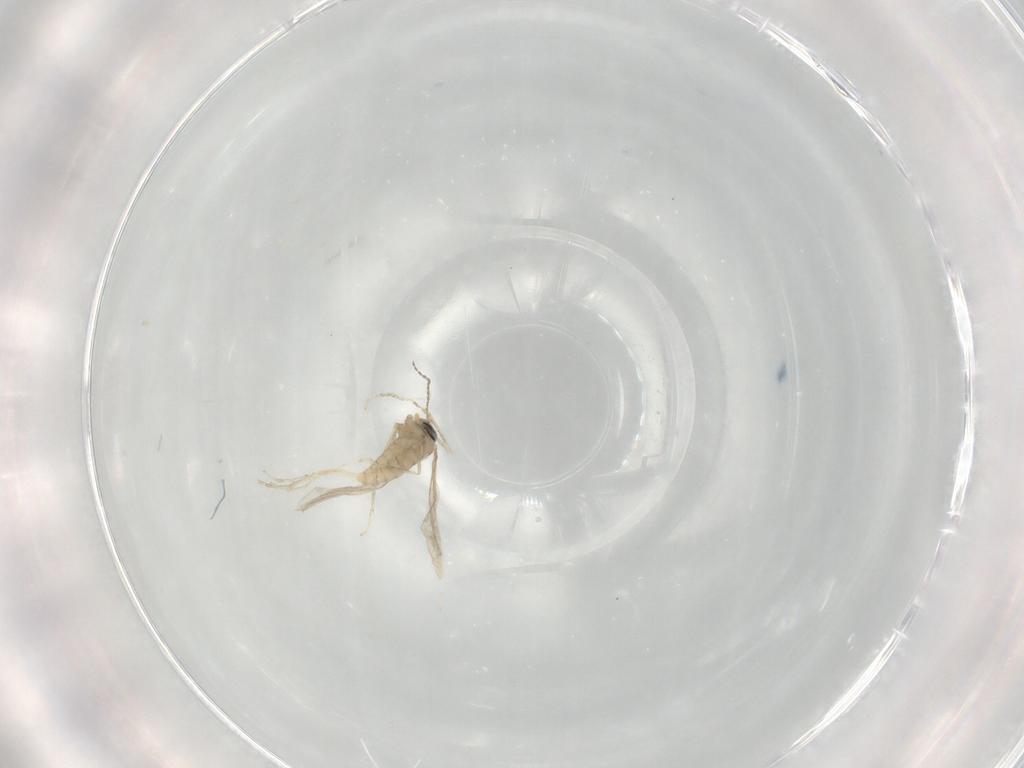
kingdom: Animalia
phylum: Arthropoda
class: Insecta
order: Diptera
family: Cecidomyiidae
